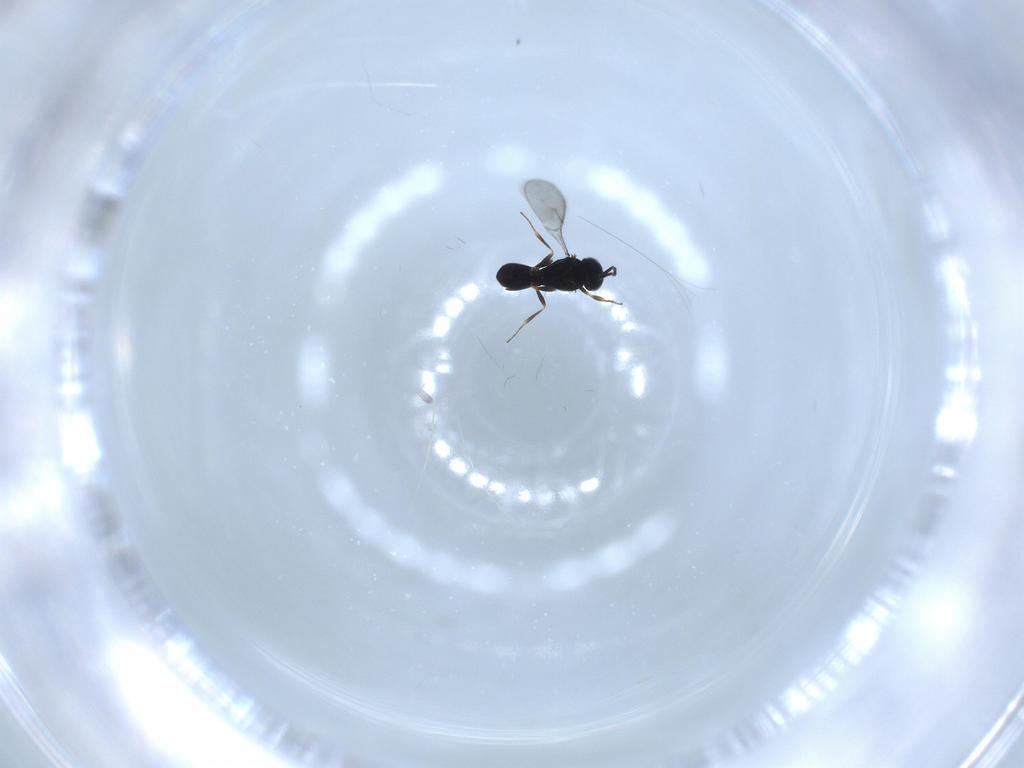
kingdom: Animalia
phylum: Arthropoda
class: Insecta
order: Hymenoptera
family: Scelionidae
